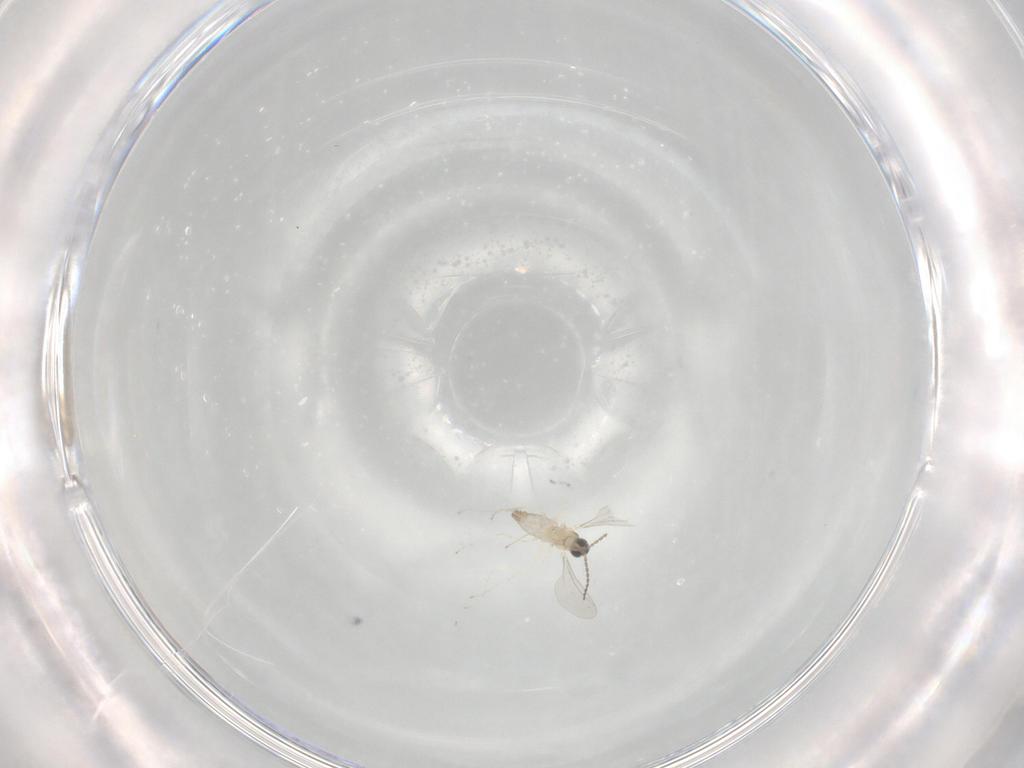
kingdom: Animalia
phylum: Arthropoda
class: Insecta
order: Diptera
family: Cecidomyiidae
